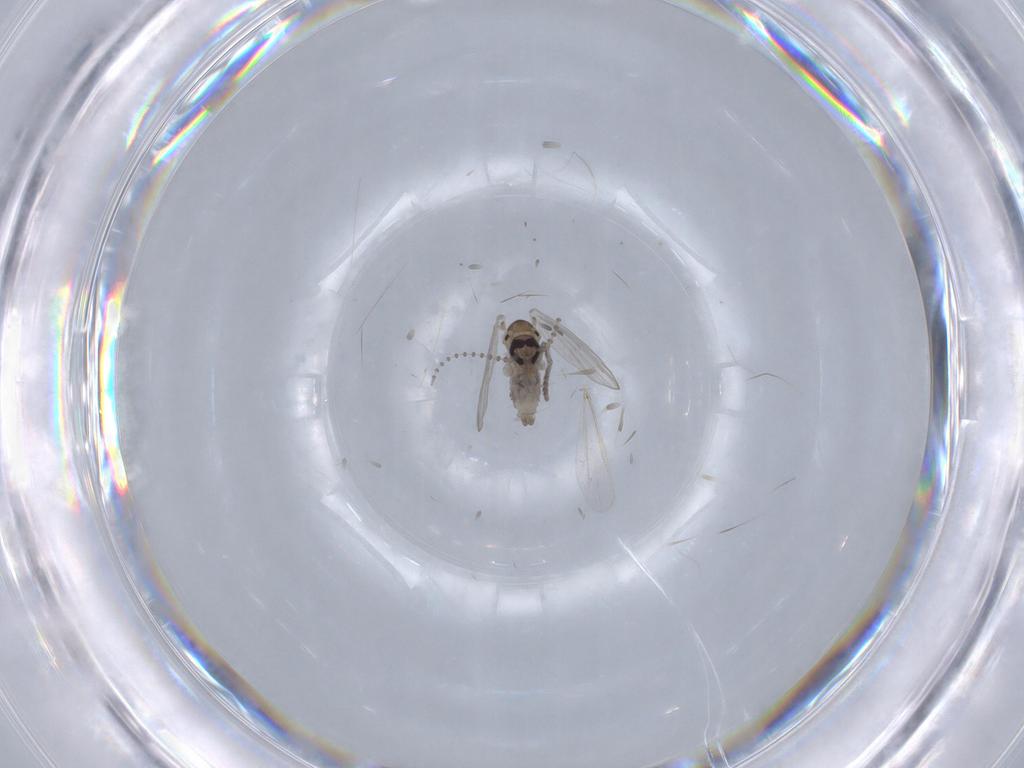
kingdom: Animalia
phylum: Arthropoda
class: Insecta
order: Diptera
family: Psychodidae
